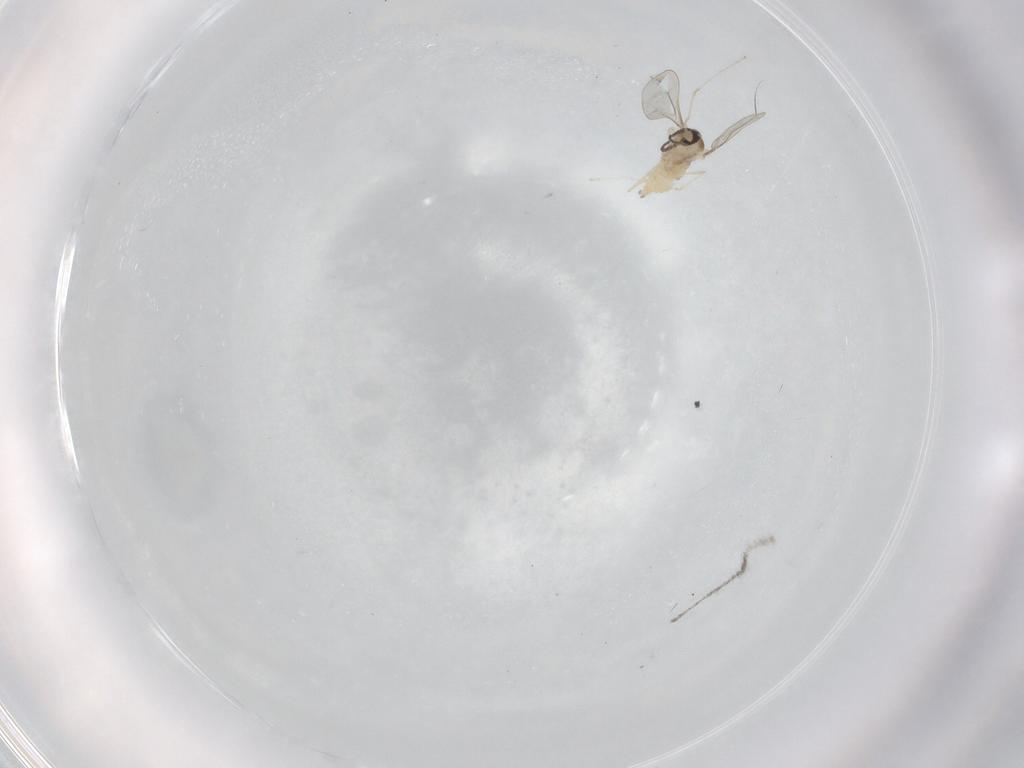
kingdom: Animalia
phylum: Arthropoda
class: Insecta
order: Diptera
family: Cecidomyiidae
